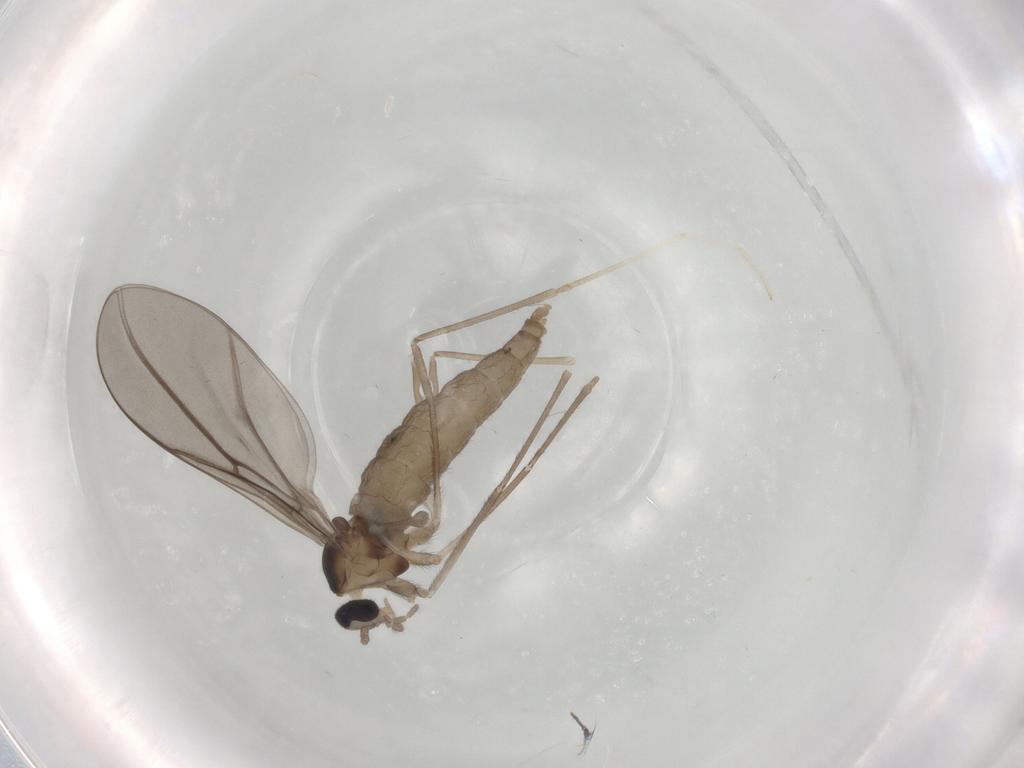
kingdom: Animalia
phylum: Arthropoda
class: Insecta
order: Diptera
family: Cecidomyiidae
